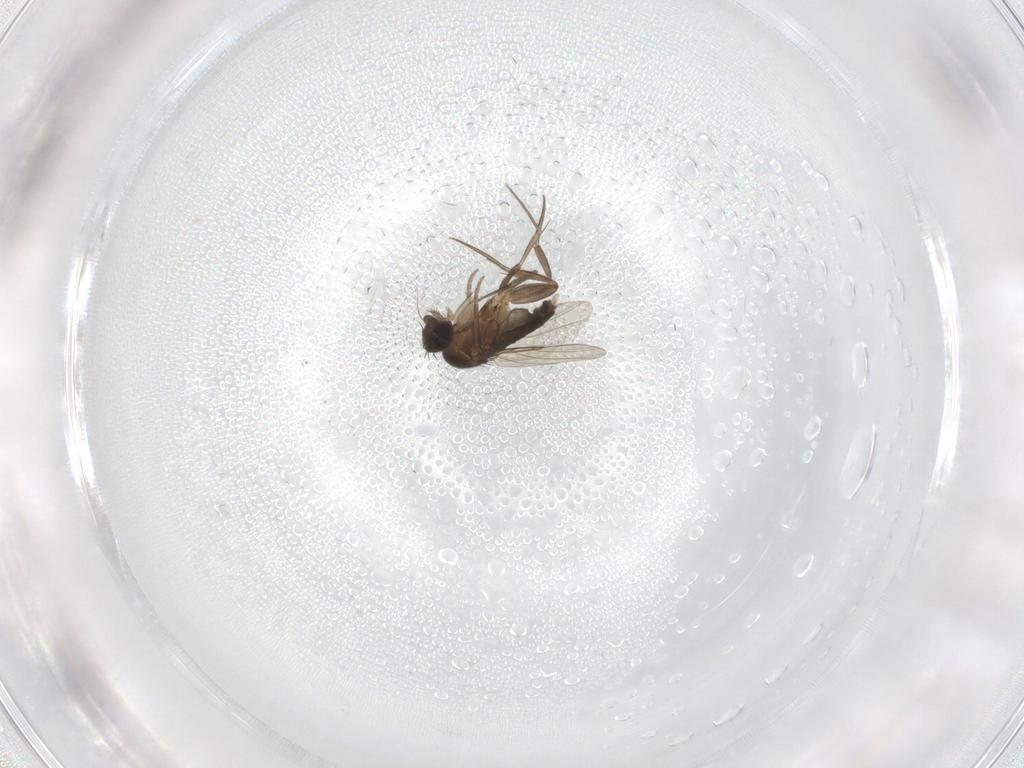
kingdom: Animalia
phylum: Arthropoda
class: Insecta
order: Diptera
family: Phoridae
